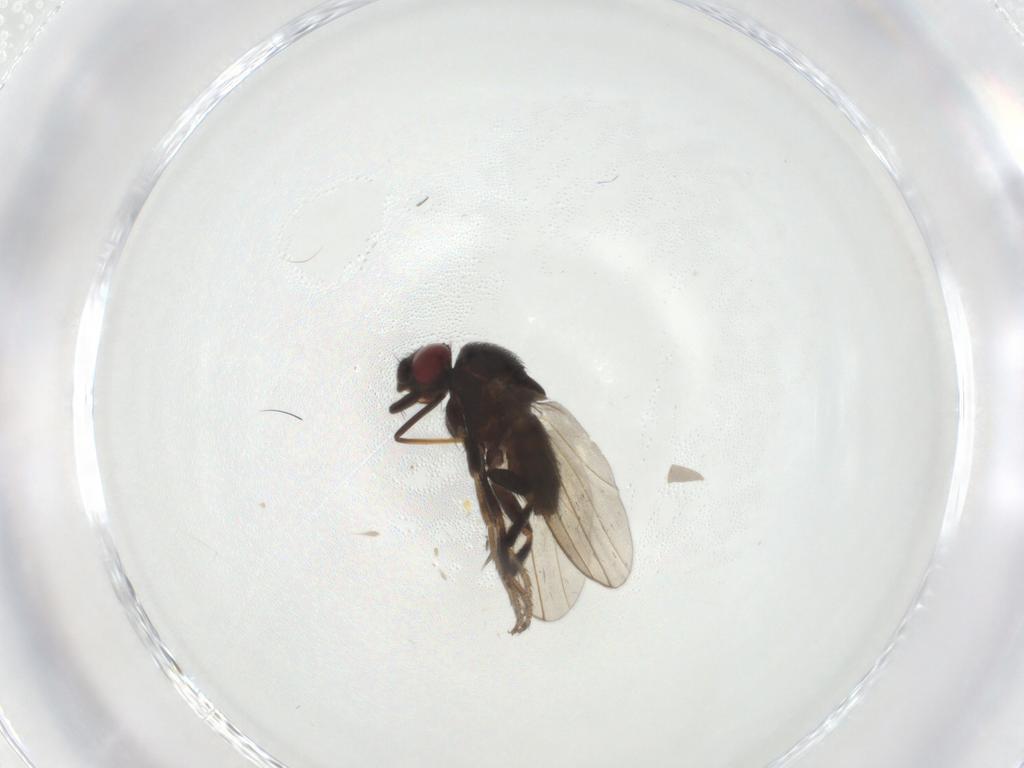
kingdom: Animalia
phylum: Arthropoda
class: Insecta
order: Diptera
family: Milichiidae
